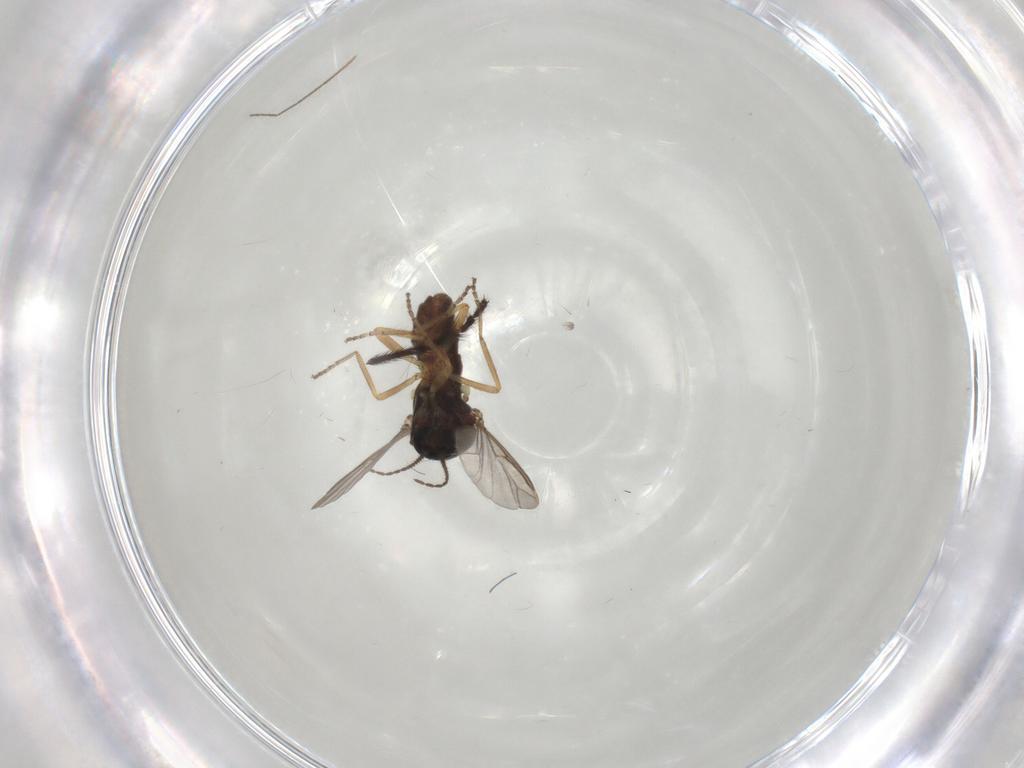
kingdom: Animalia
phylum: Arthropoda
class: Insecta
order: Diptera
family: Ceratopogonidae
